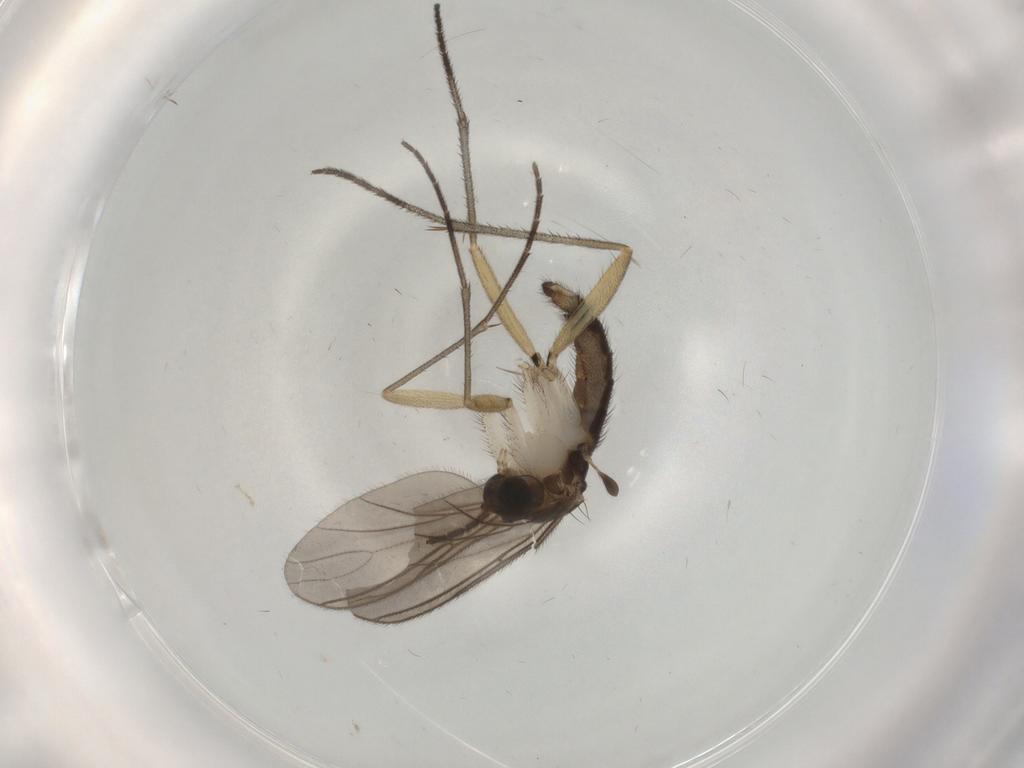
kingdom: Animalia
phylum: Arthropoda
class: Insecta
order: Diptera
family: Sciaridae
